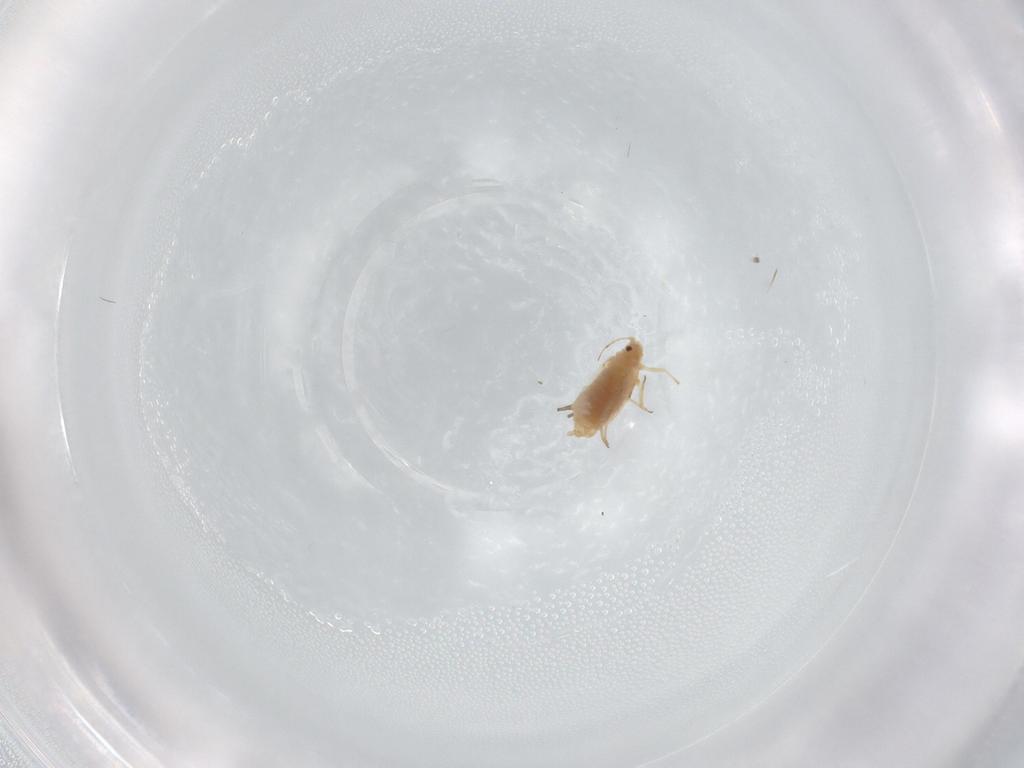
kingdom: Animalia
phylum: Arthropoda
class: Insecta
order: Hemiptera
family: Aphididae
